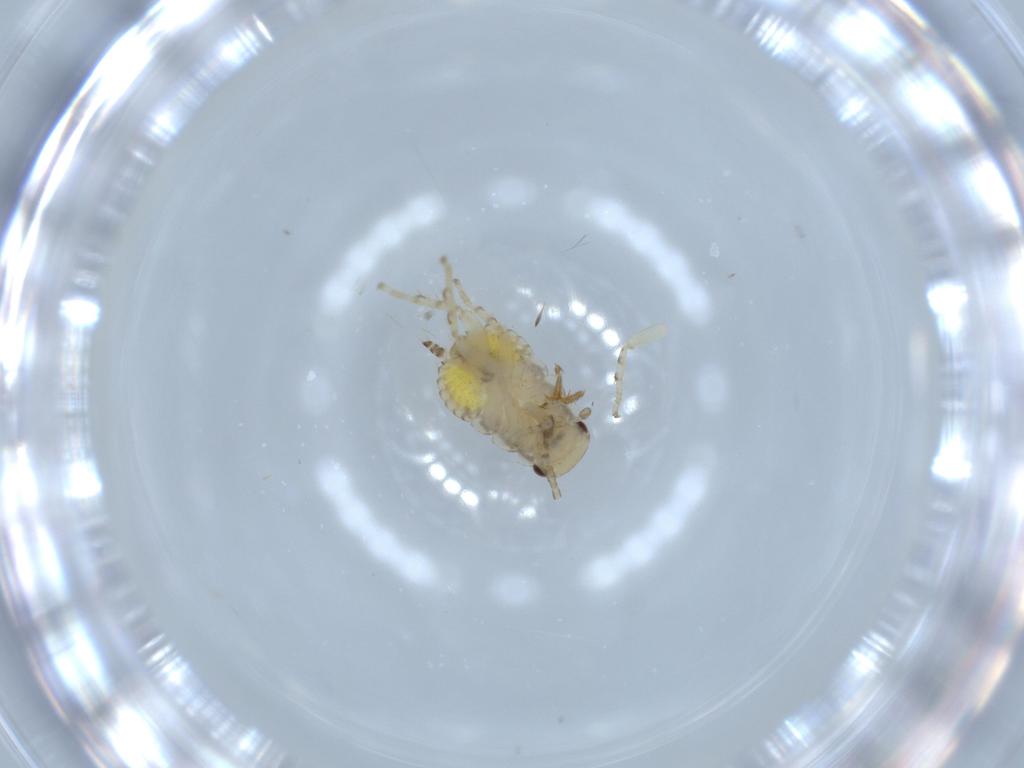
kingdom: Animalia
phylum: Arthropoda
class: Insecta
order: Blattodea
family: Ectobiidae
